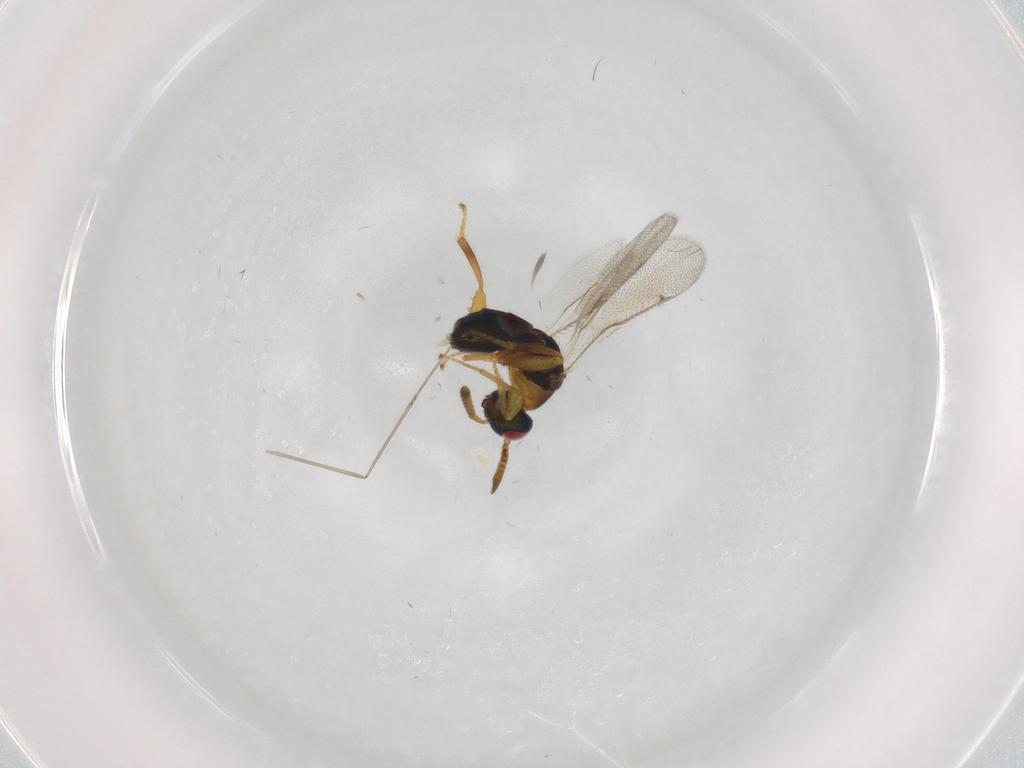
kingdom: Animalia
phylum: Arthropoda
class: Insecta
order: Hymenoptera
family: Torymidae
